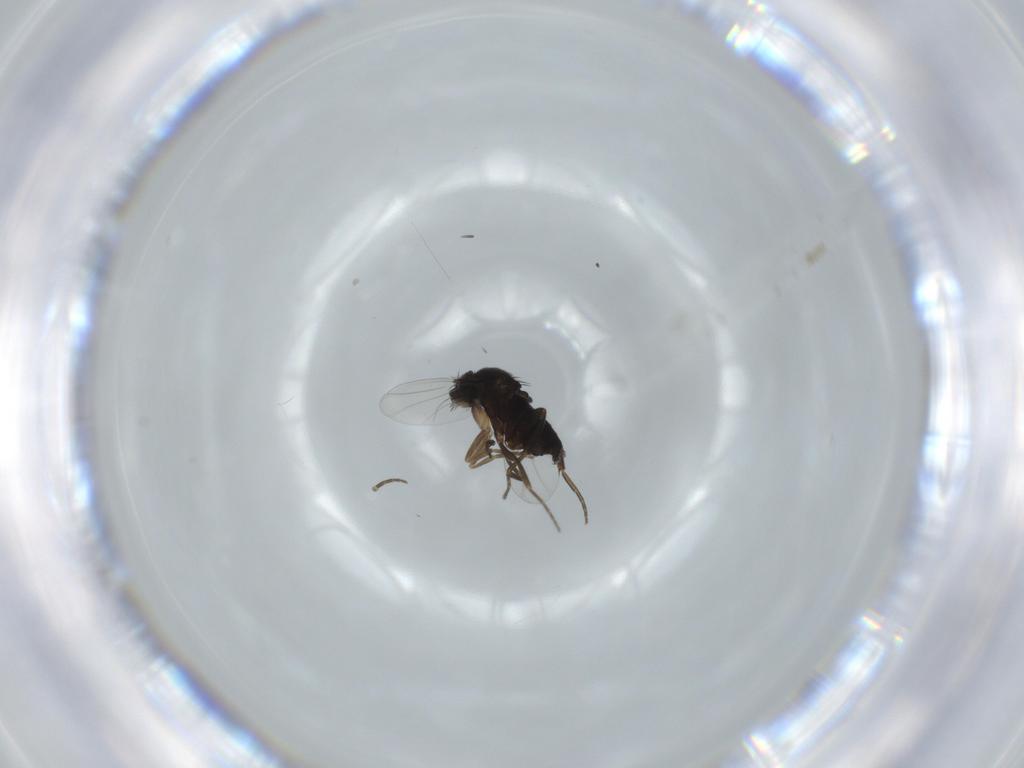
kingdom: Animalia
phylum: Arthropoda
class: Insecta
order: Diptera
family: Phoridae
